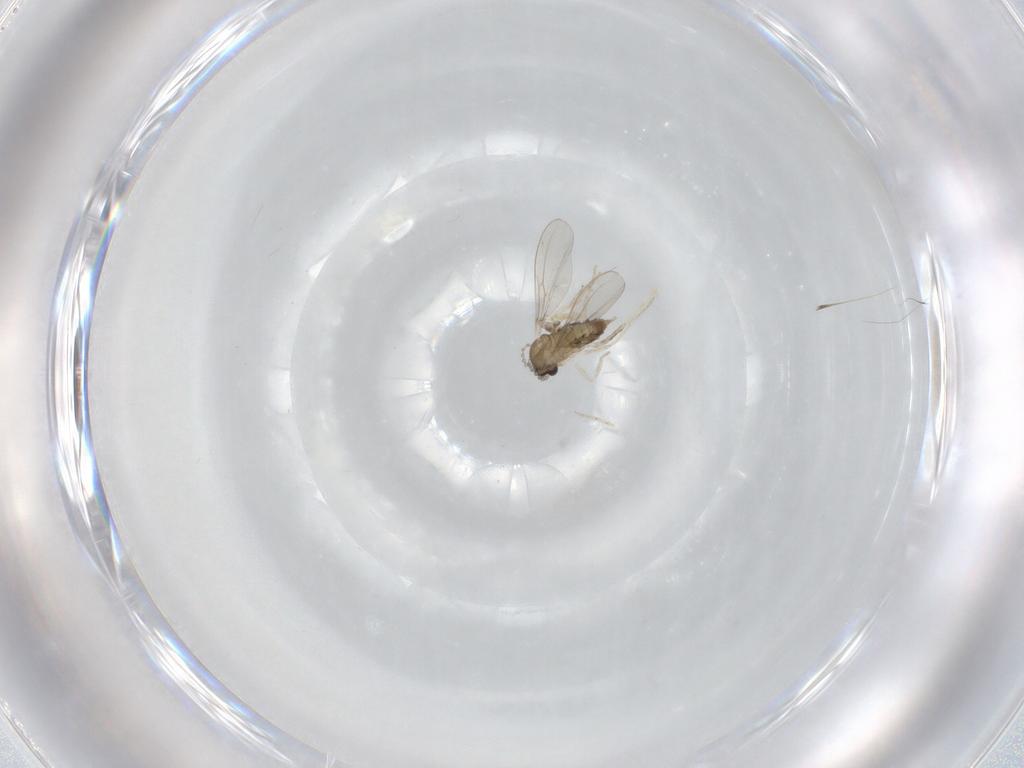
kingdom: Animalia
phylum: Arthropoda
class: Insecta
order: Diptera
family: Cecidomyiidae
